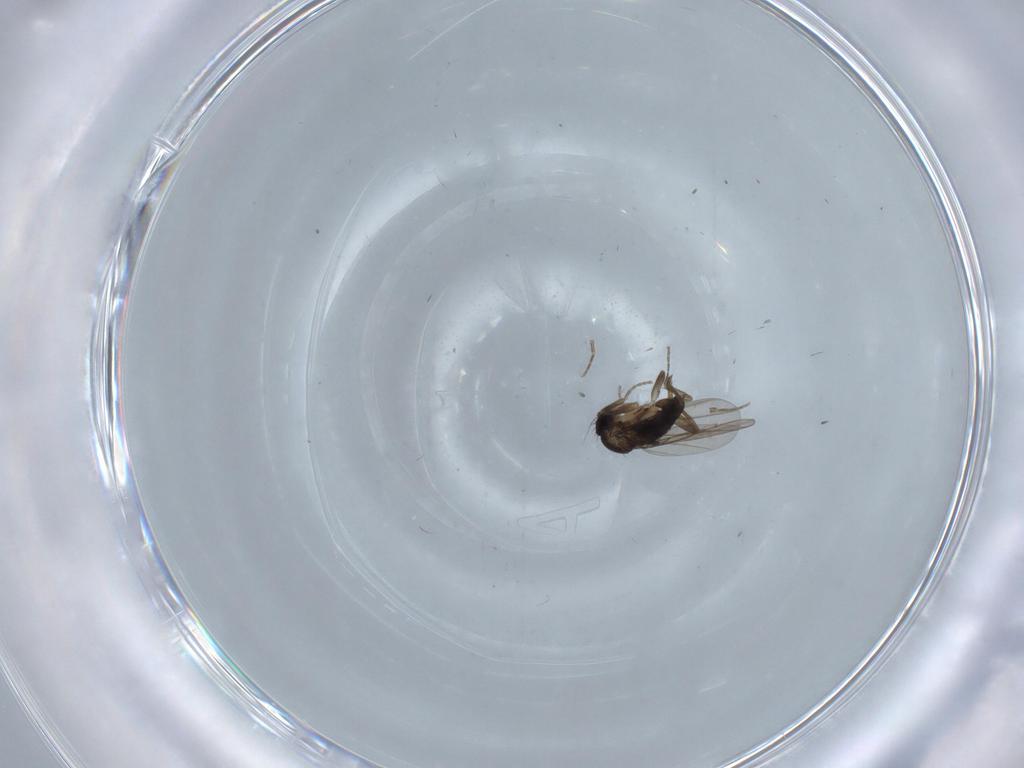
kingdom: Animalia
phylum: Arthropoda
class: Insecta
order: Diptera
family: Phoridae
